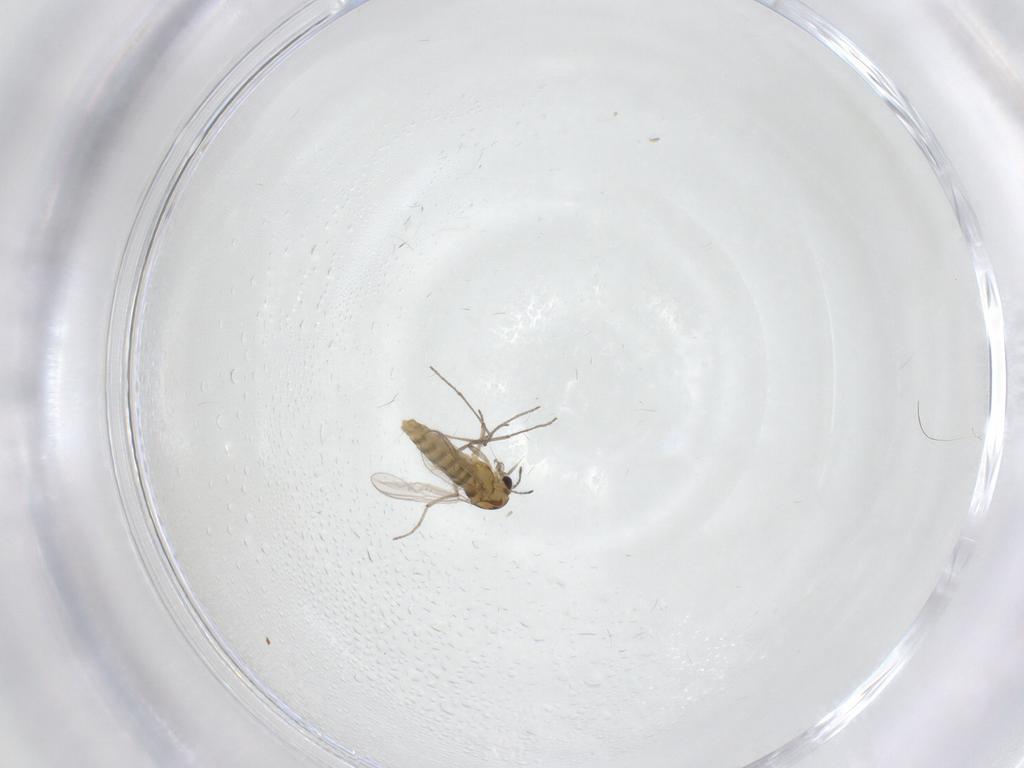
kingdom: Animalia
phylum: Arthropoda
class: Insecta
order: Diptera
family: Chironomidae
